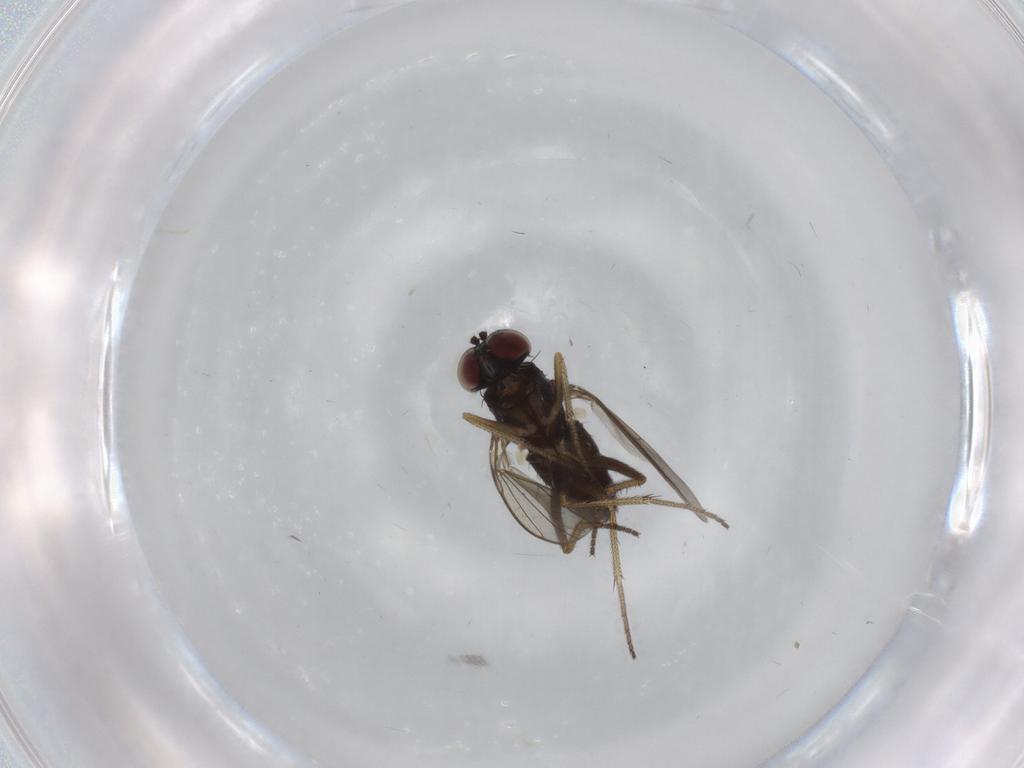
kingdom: Animalia
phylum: Arthropoda
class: Insecta
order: Diptera
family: Dolichopodidae
